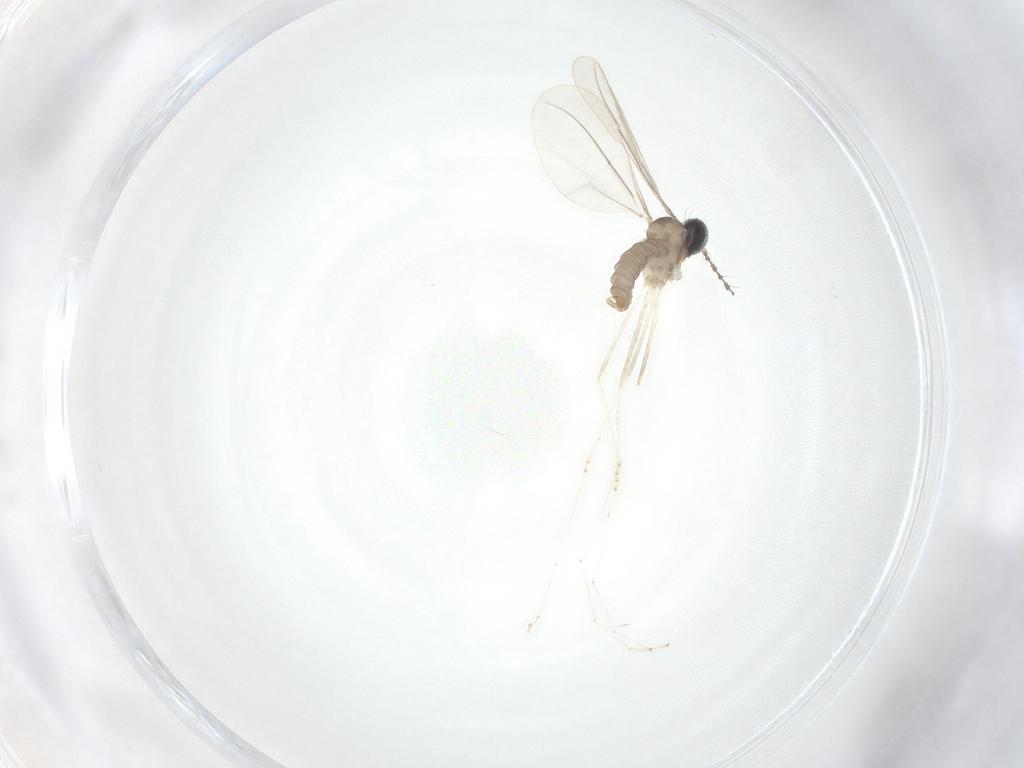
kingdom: Animalia
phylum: Arthropoda
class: Insecta
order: Diptera
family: Cecidomyiidae
